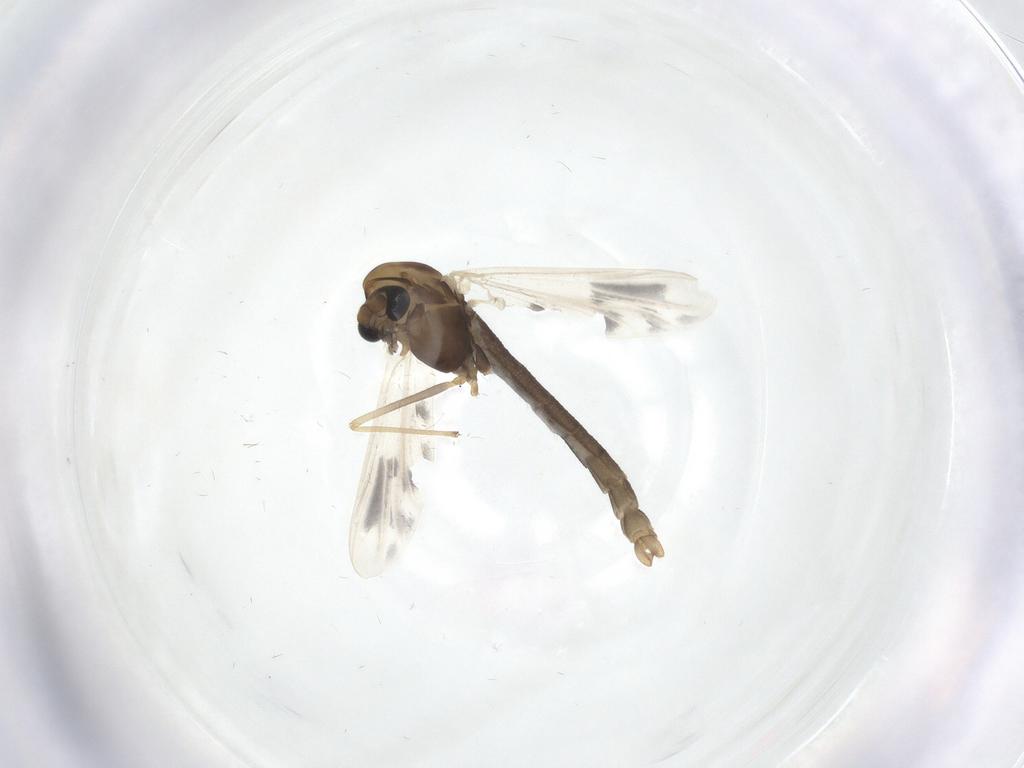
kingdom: Animalia
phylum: Arthropoda
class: Insecta
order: Diptera
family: Chironomidae
